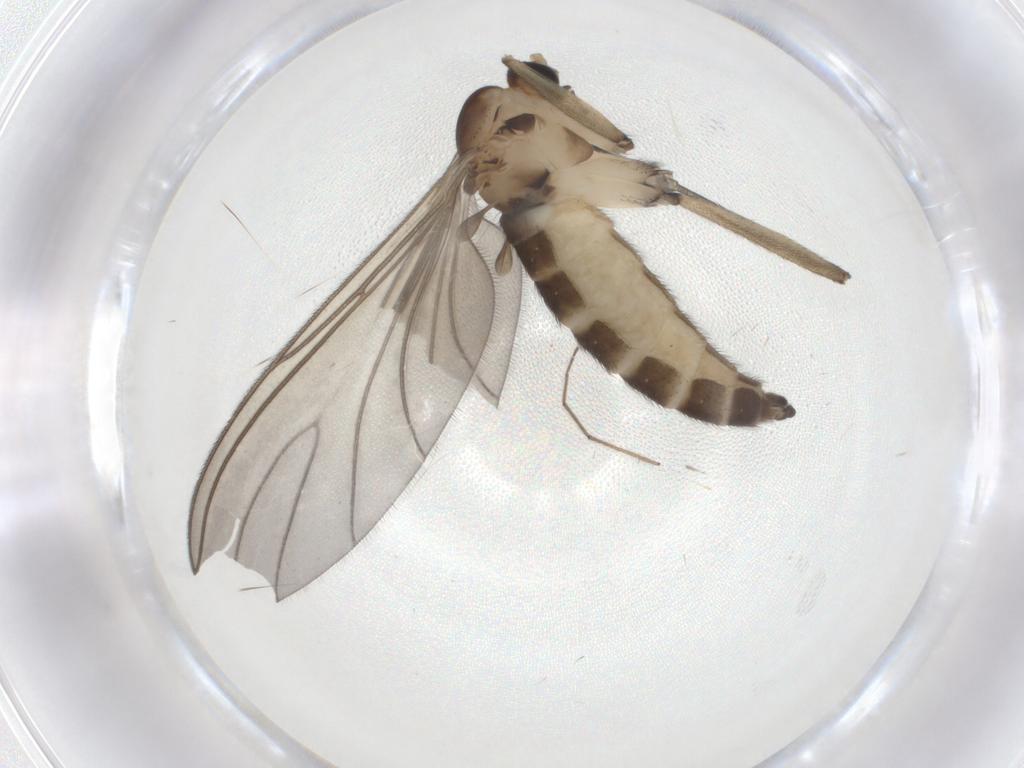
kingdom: Animalia
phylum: Arthropoda
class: Insecta
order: Diptera
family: Sciaridae
